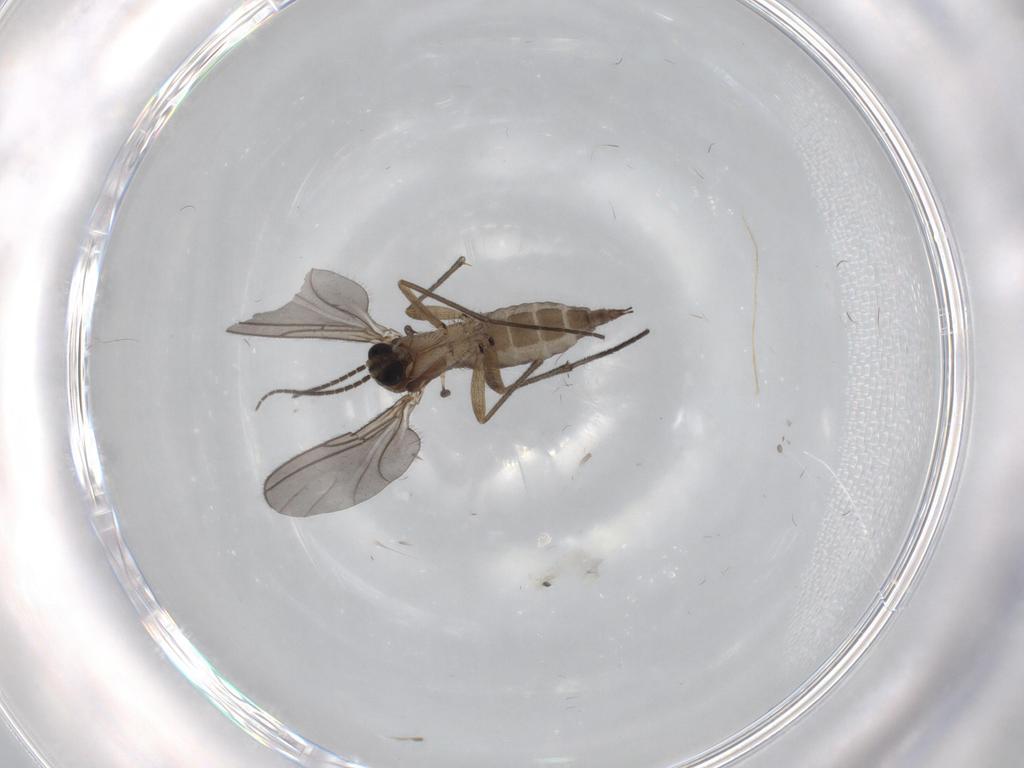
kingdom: Animalia
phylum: Arthropoda
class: Insecta
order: Diptera
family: Sciaridae
